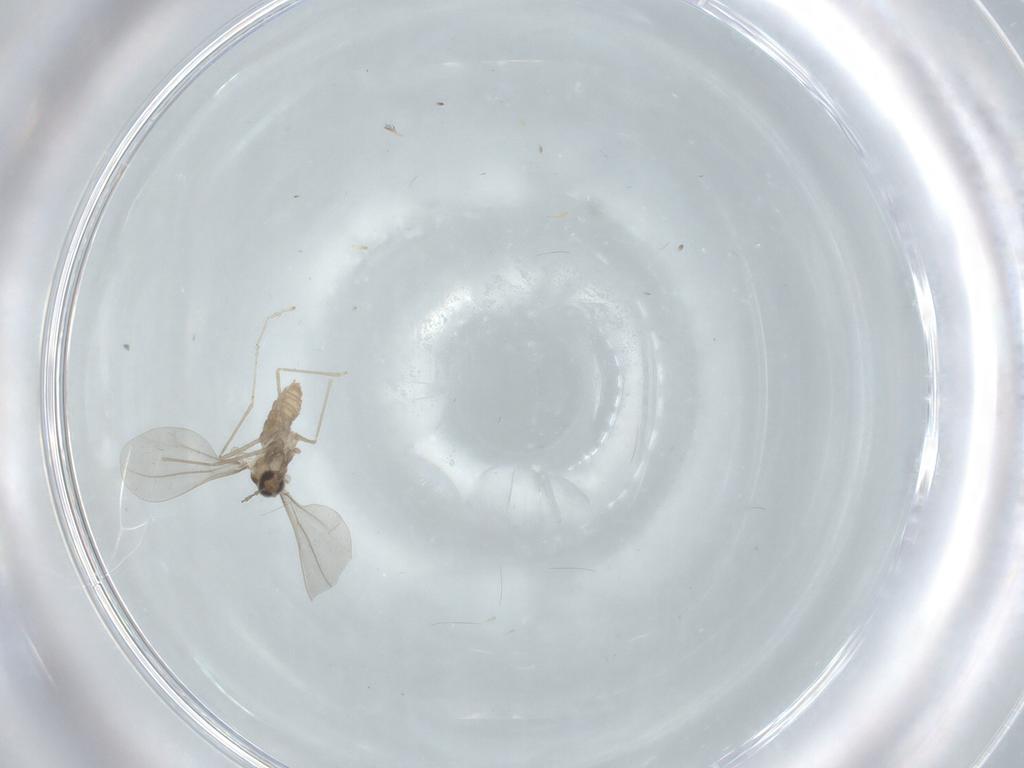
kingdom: Animalia
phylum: Arthropoda
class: Insecta
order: Diptera
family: Cecidomyiidae
